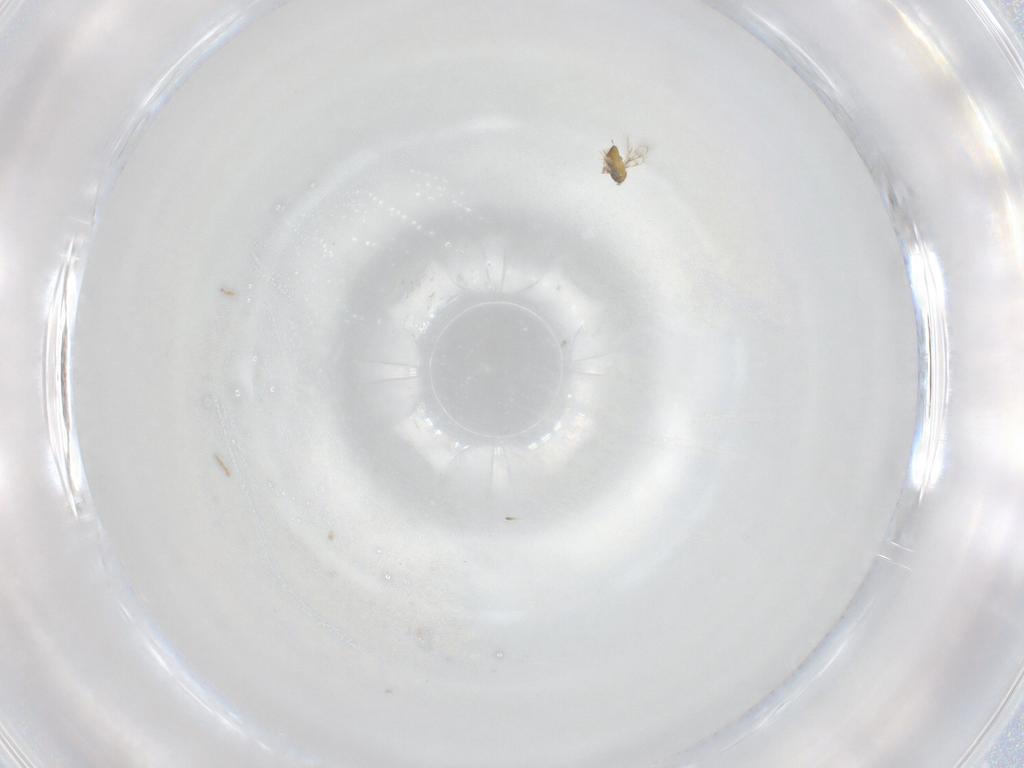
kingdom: Animalia
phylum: Arthropoda
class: Insecta
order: Hymenoptera
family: Trichogrammatidae
